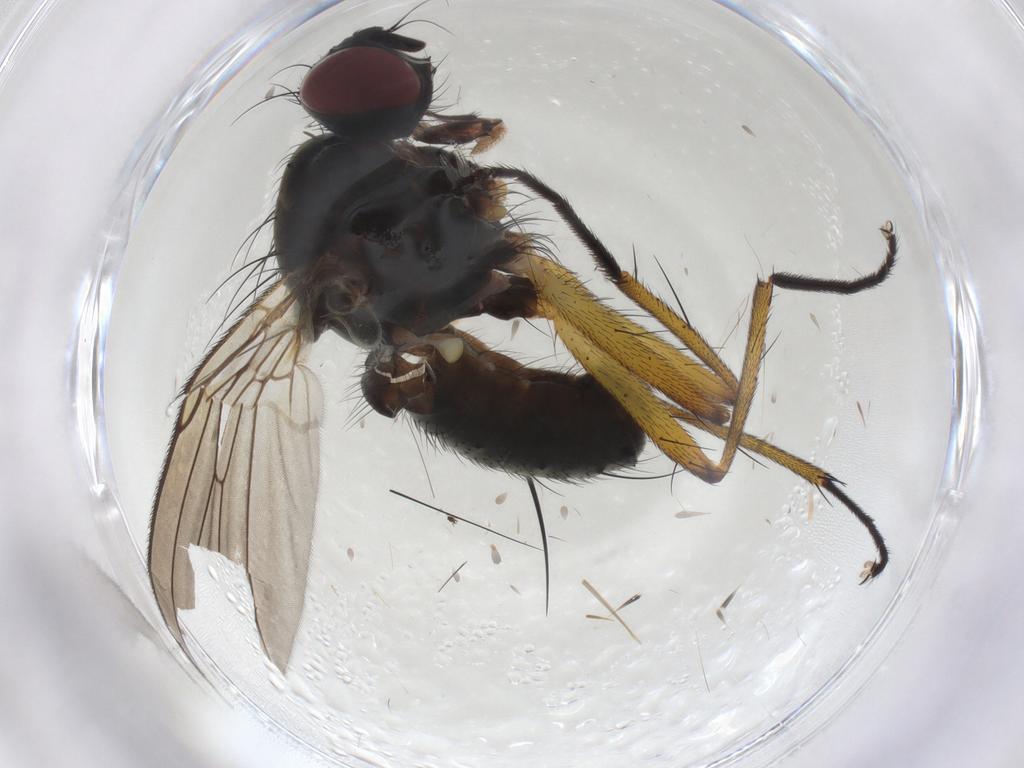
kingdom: Animalia
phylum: Arthropoda
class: Insecta
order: Diptera
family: Muscidae
